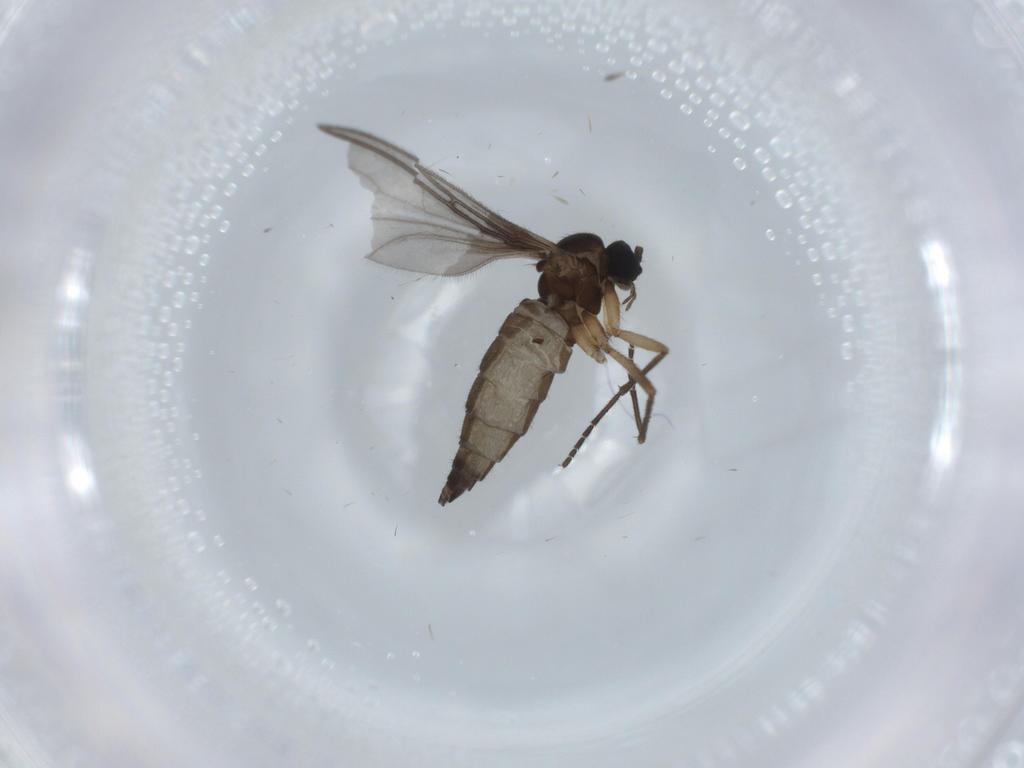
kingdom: Animalia
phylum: Arthropoda
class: Insecta
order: Diptera
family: Sciaridae
